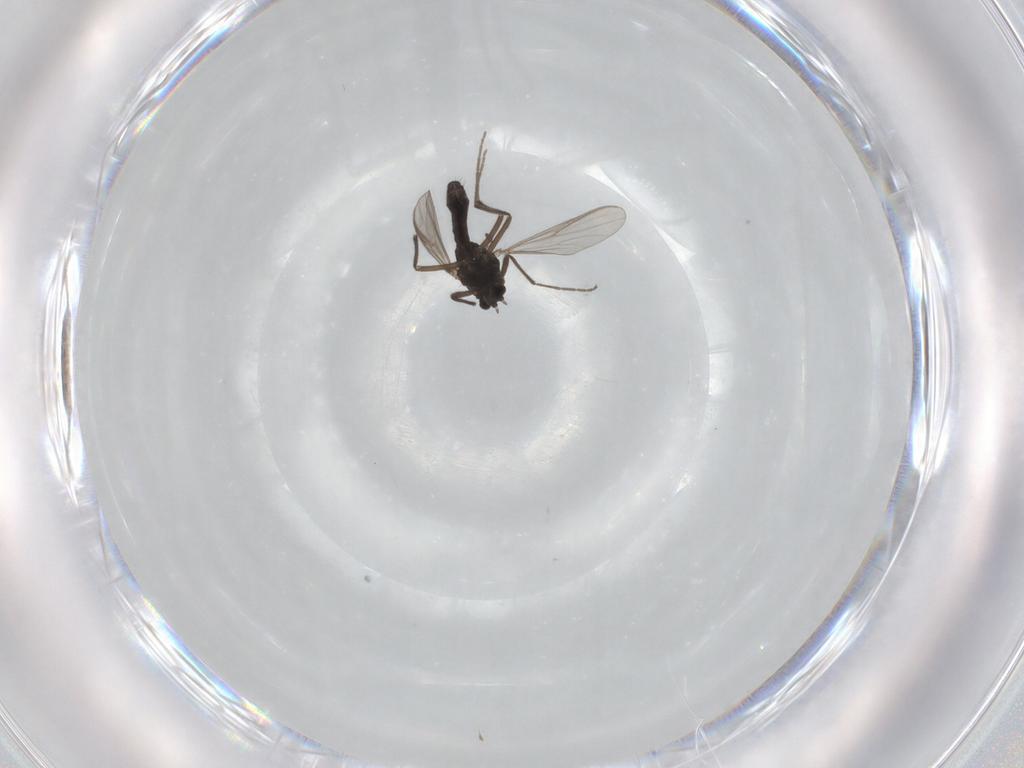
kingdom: Animalia
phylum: Arthropoda
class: Insecta
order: Diptera
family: Chironomidae
